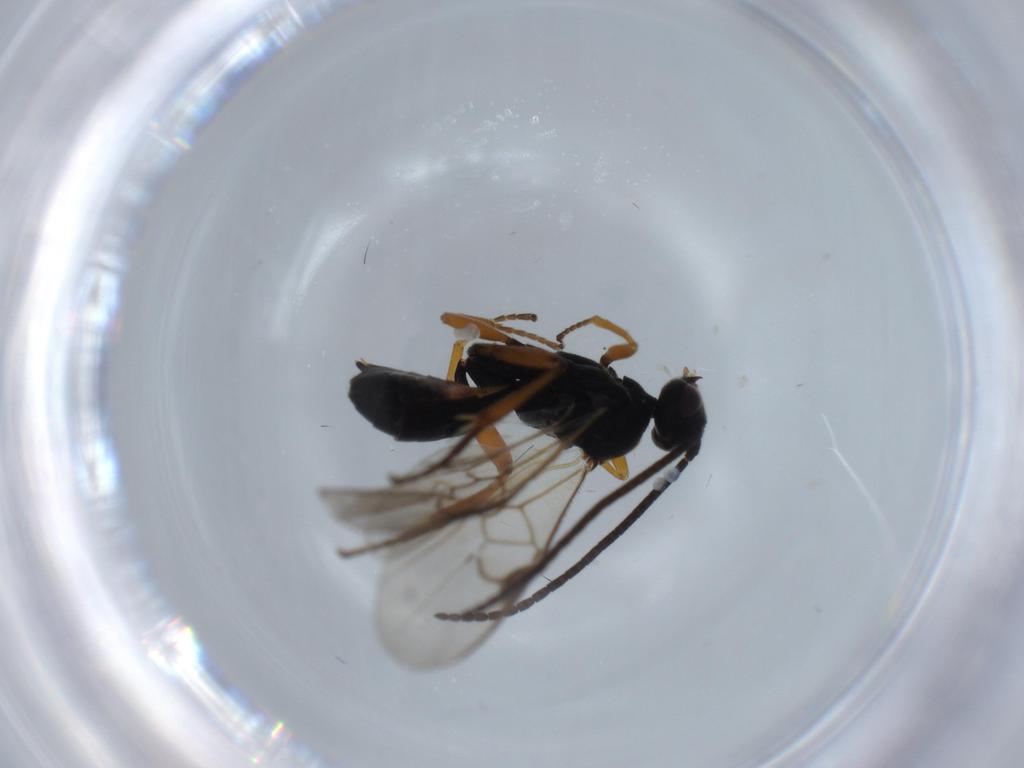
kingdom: Animalia
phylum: Arthropoda
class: Insecta
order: Hymenoptera
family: Braconidae
